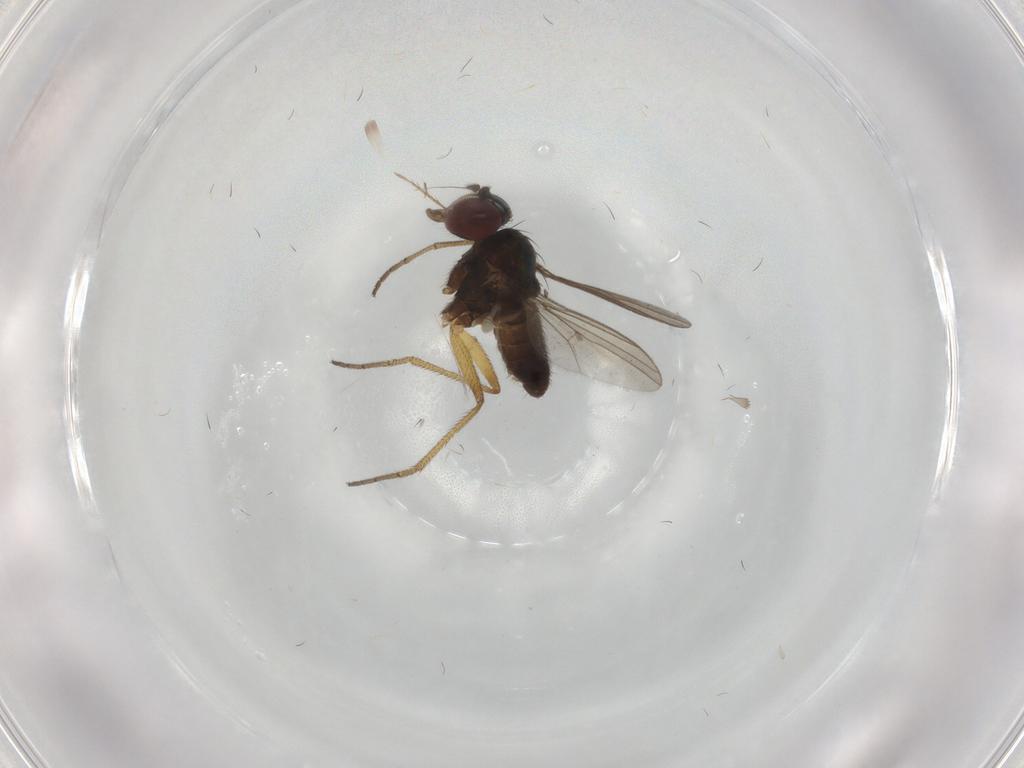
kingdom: Animalia
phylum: Arthropoda
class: Insecta
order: Diptera
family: Dolichopodidae
